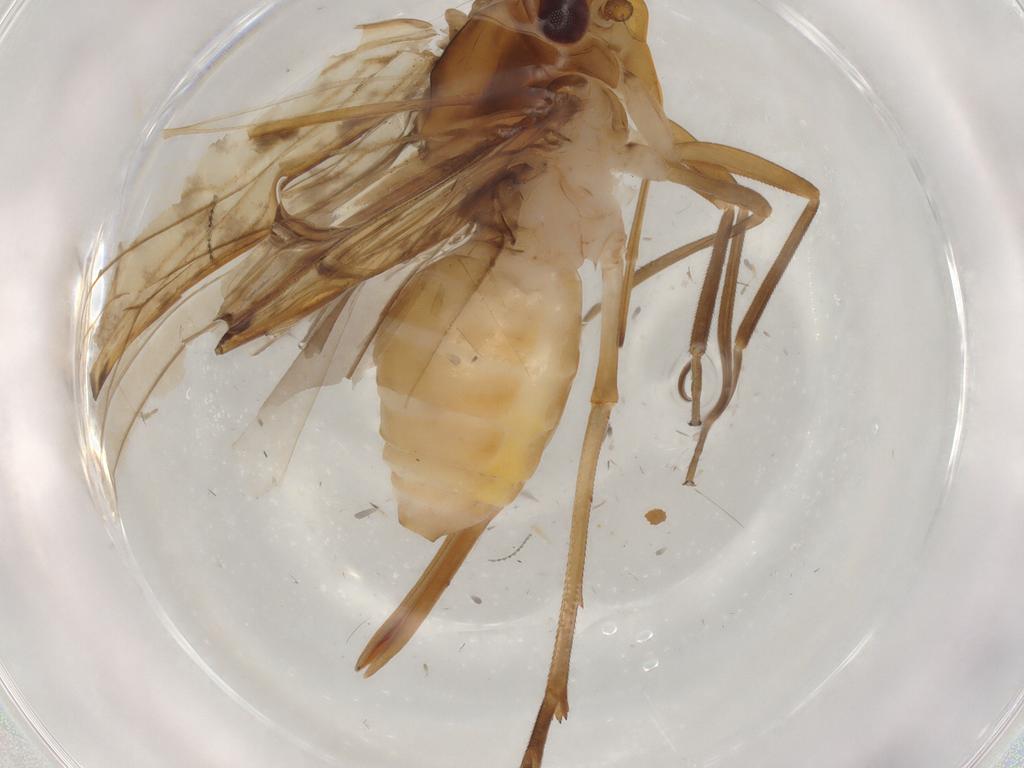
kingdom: Animalia
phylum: Arthropoda
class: Insecta
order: Hemiptera
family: Cixiidae
